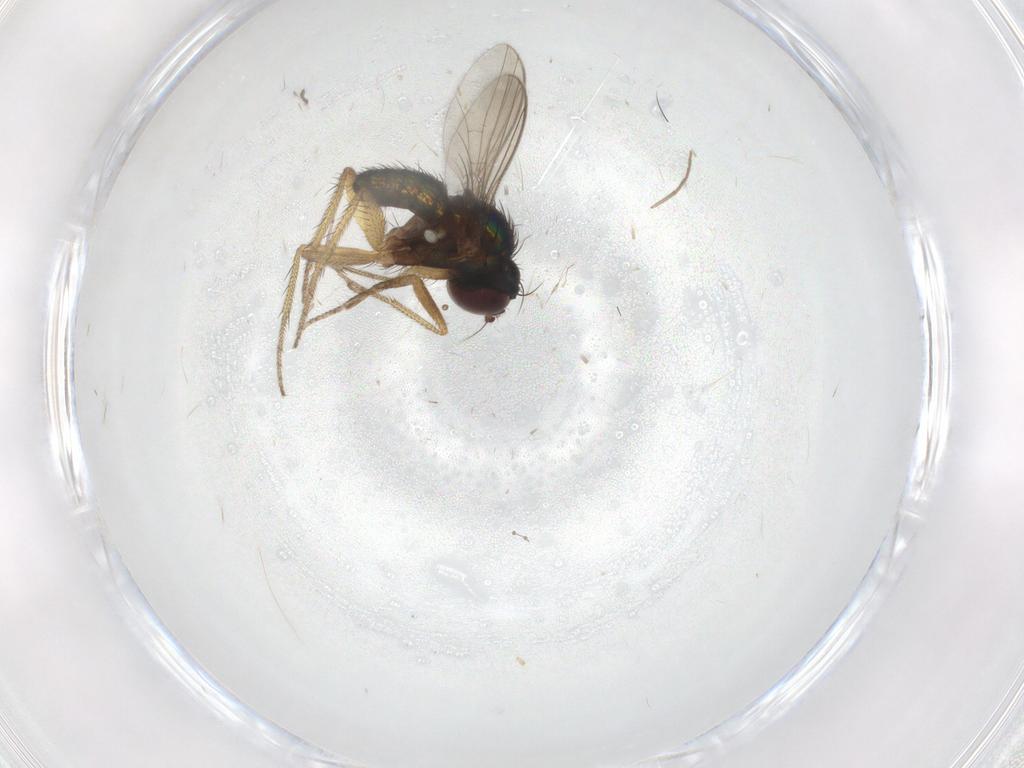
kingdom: Animalia
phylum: Arthropoda
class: Insecta
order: Diptera
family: Dolichopodidae
